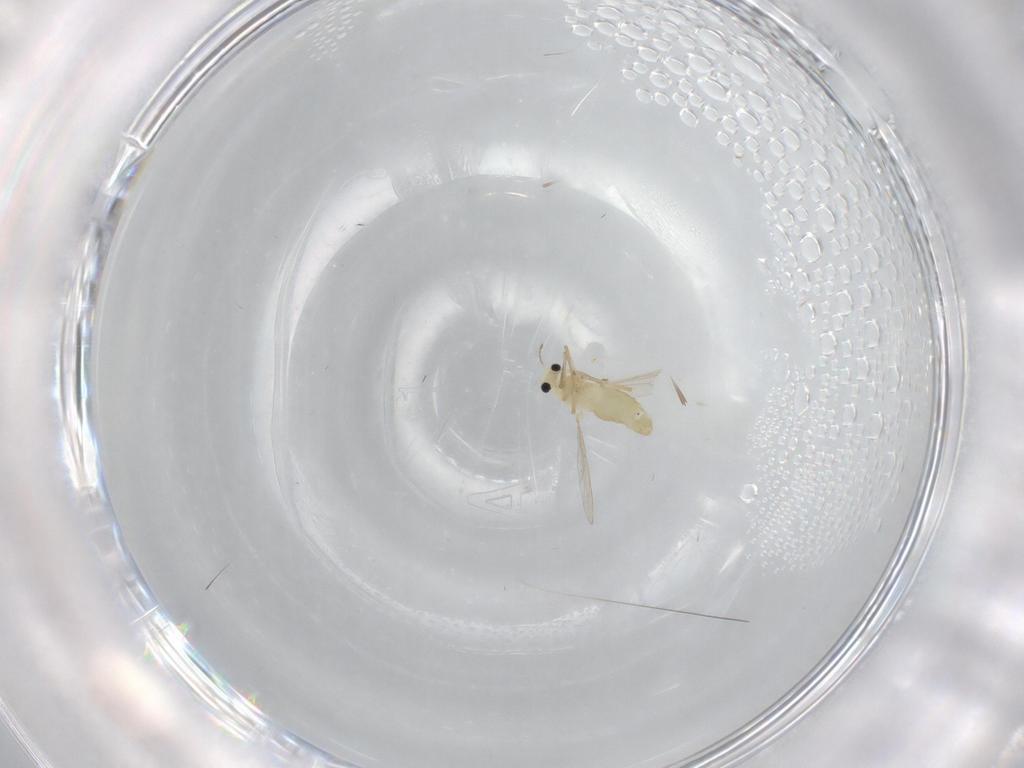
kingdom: Animalia
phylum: Arthropoda
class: Insecta
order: Diptera
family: Chironomidae
